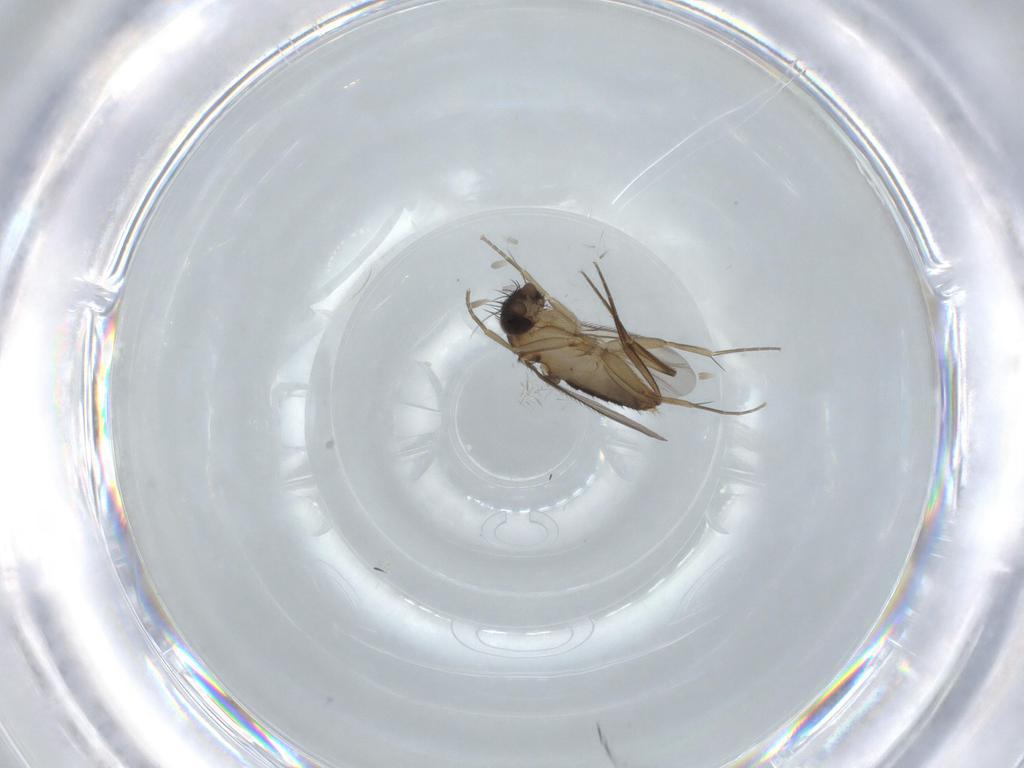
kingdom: Animalia
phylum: Arthropoda
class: Insecta
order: Diptera
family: Phoridae
